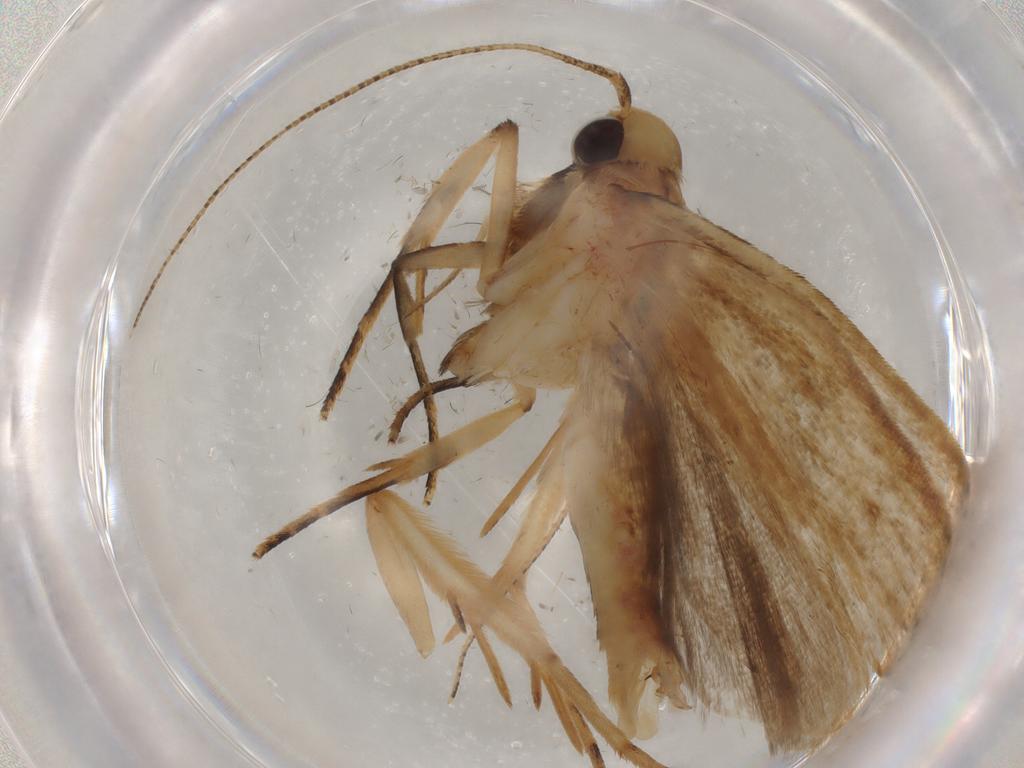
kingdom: Animalia
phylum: Arthropoda
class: Insecta
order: Lepidoptera
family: Gelechiidae
